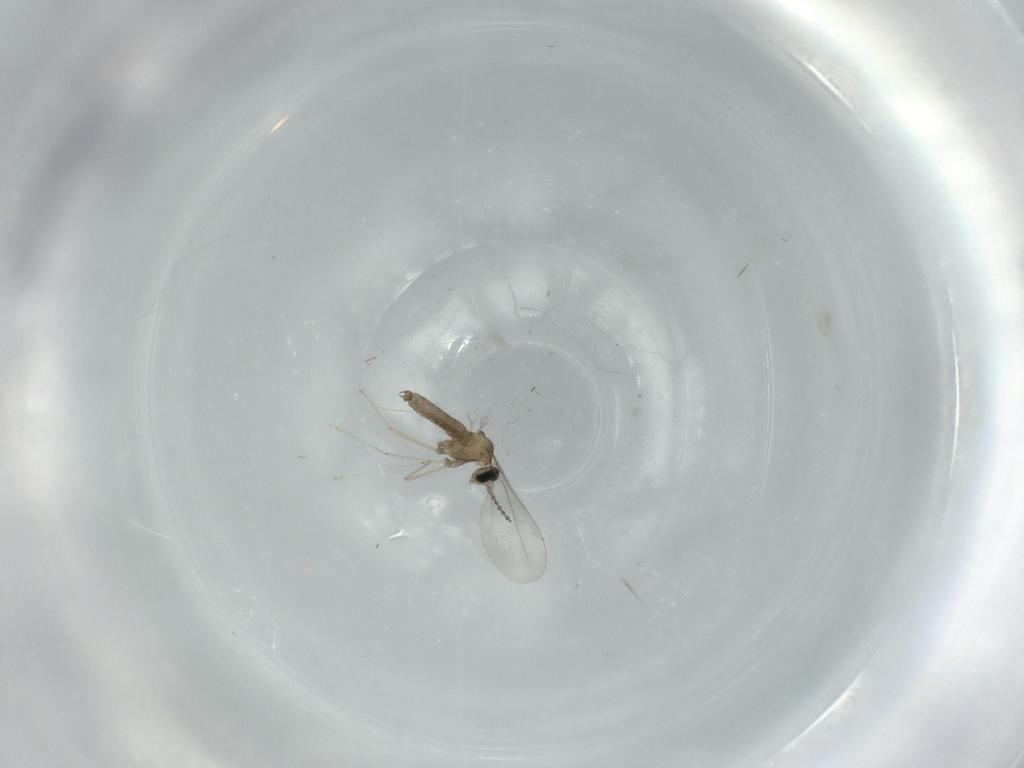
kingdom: Animalia
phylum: Arthropoda
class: Insecta
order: Diptera
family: Cecidomyiidae
